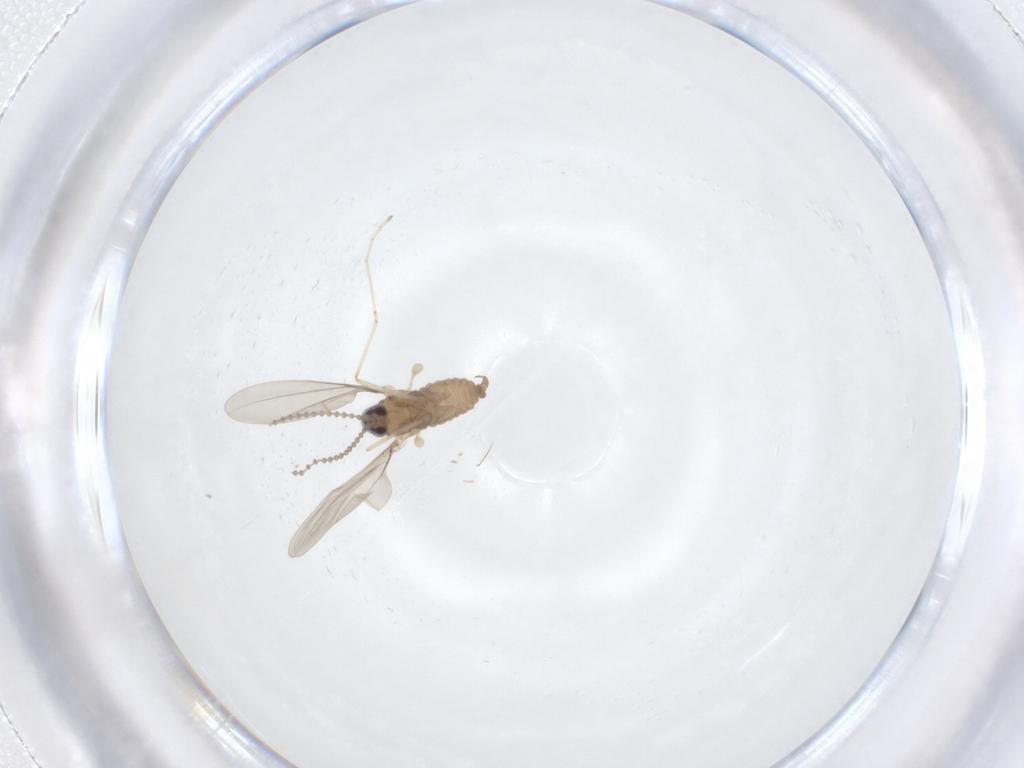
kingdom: Animalia
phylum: Arthropoda
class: Insecta
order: Diptera
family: Cecidomyiidae
